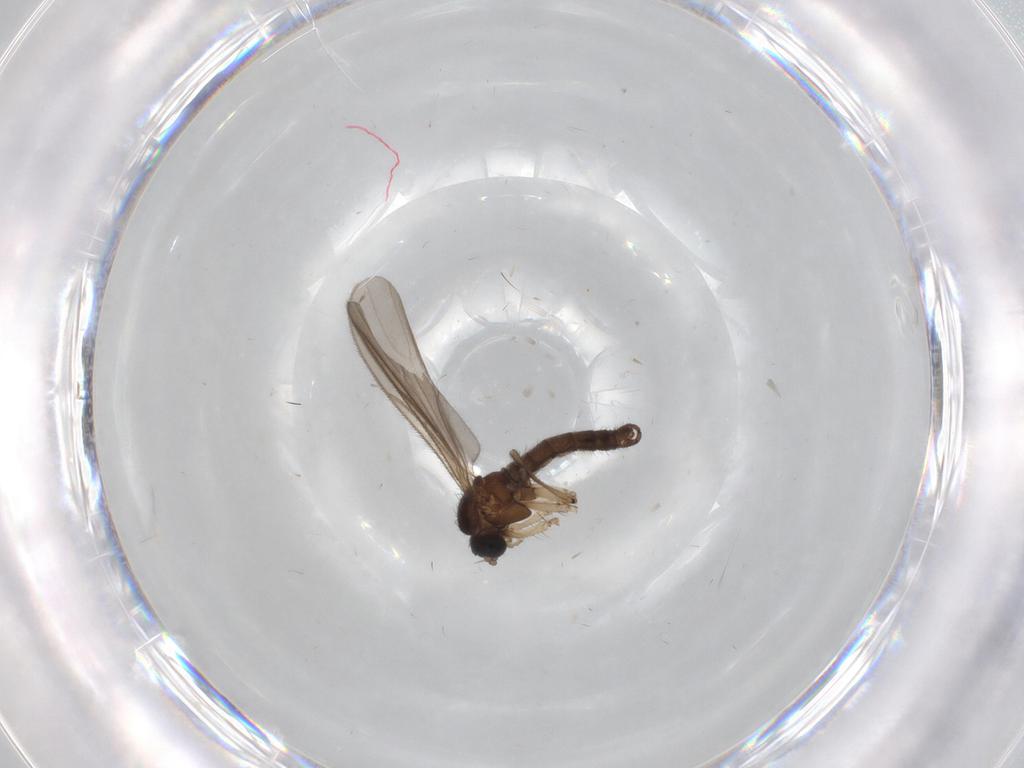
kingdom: Animalia
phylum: Arthropoda
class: Insecta
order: Diptera
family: Sciaridae
